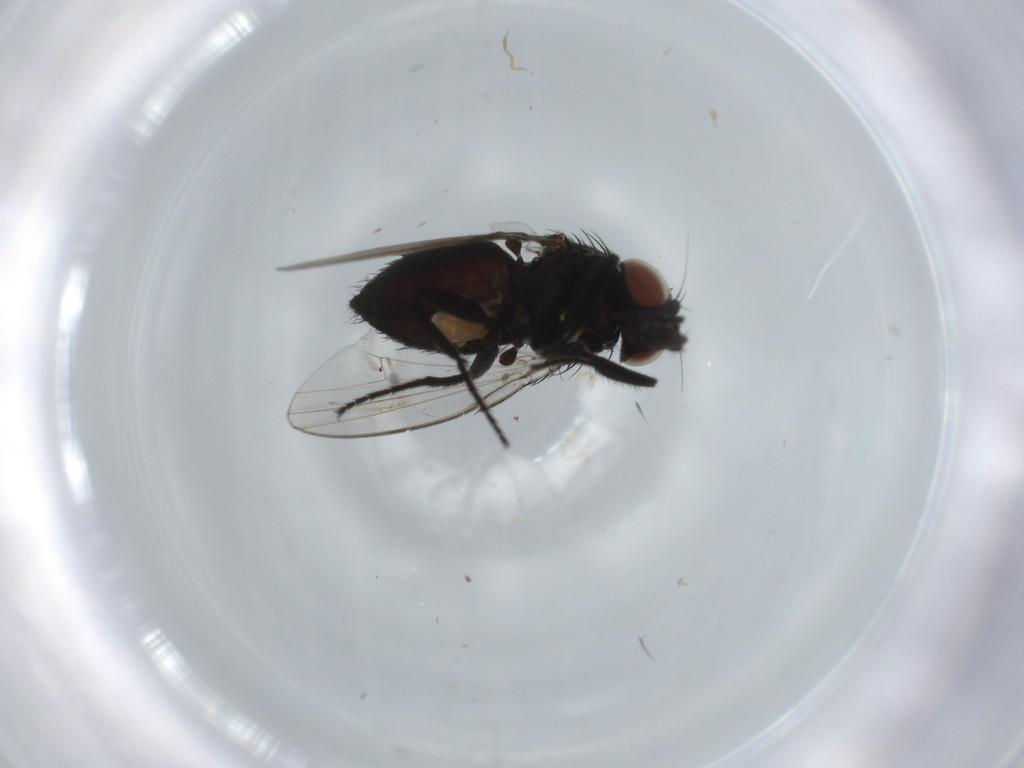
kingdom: Animalia
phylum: Arthropoda
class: Insecta
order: Diptera
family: Milichiidae
